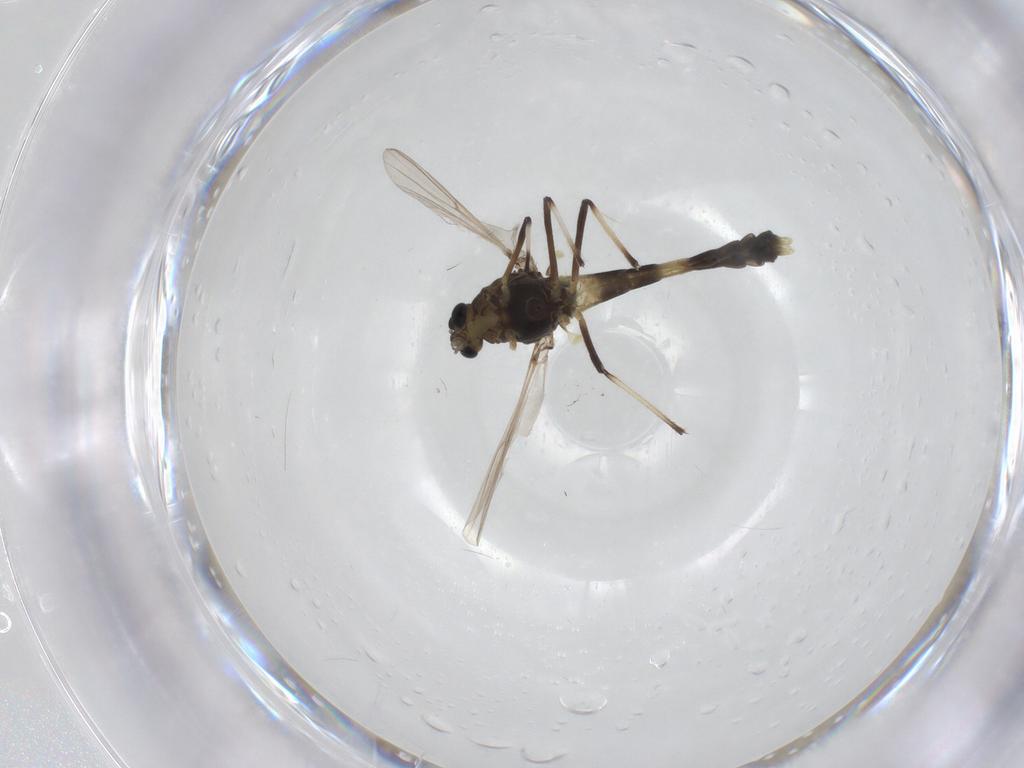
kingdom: Animalia
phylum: Arthropoda
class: Insecta
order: Diptera
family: Chironomidae
